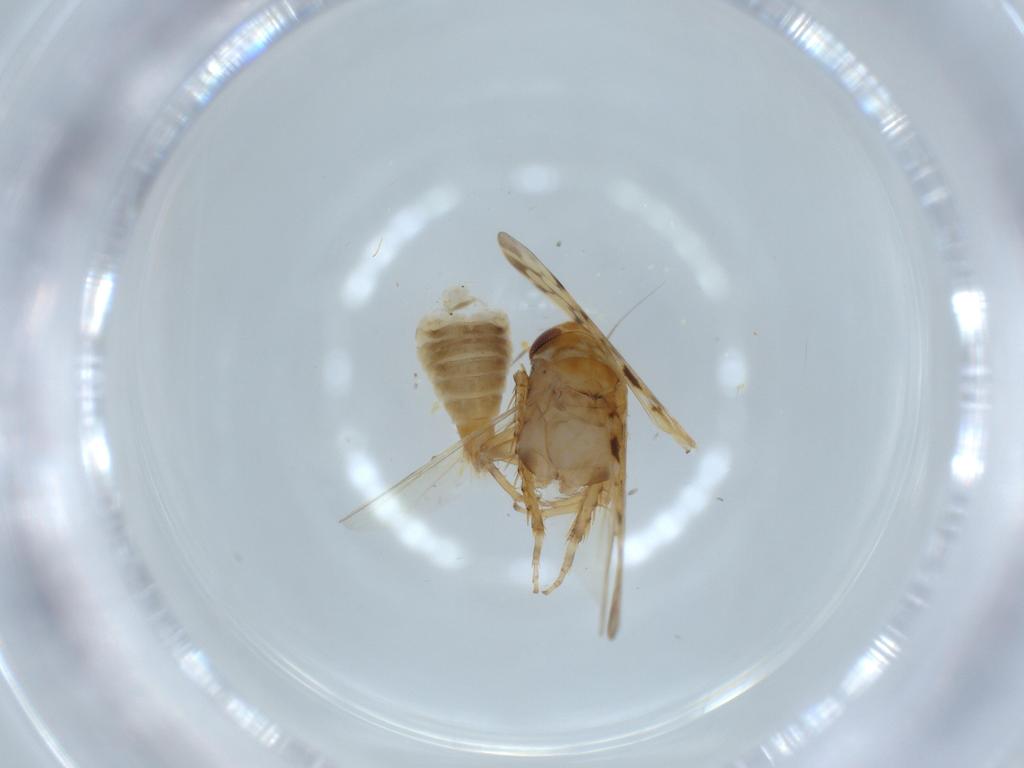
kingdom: Animalia
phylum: Arthropoda
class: Insecta
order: Hemiptera
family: Cicadellidae
